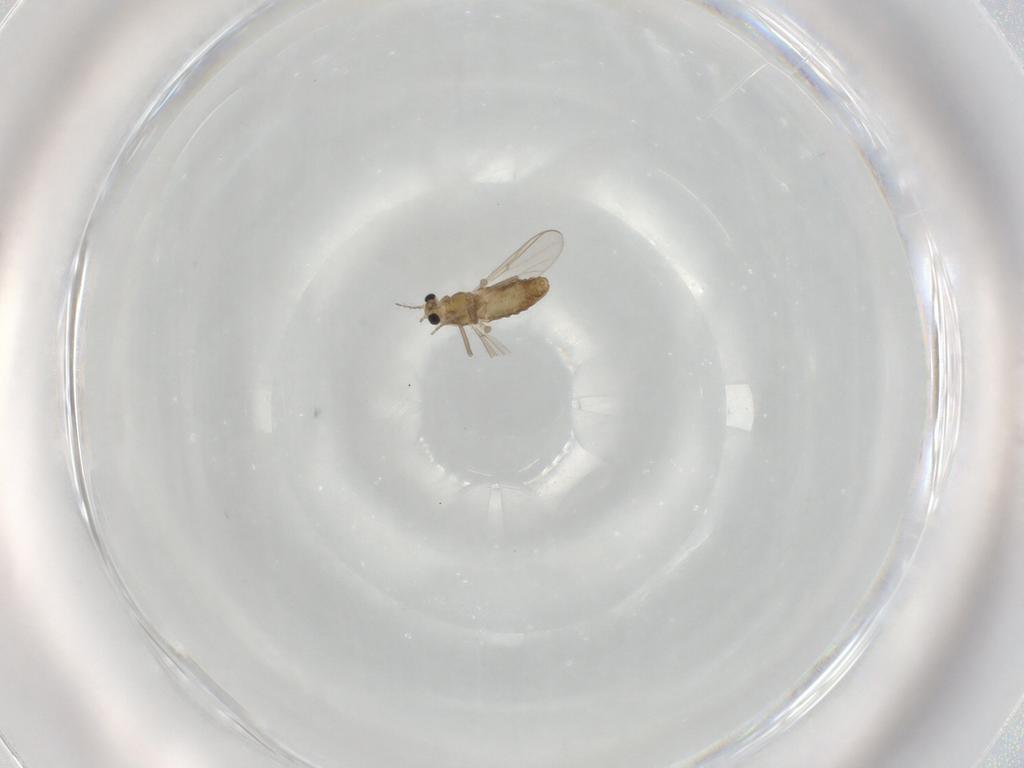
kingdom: Animalia
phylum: Arthropoda
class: Insecta
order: Diptera
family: Chironomidae
